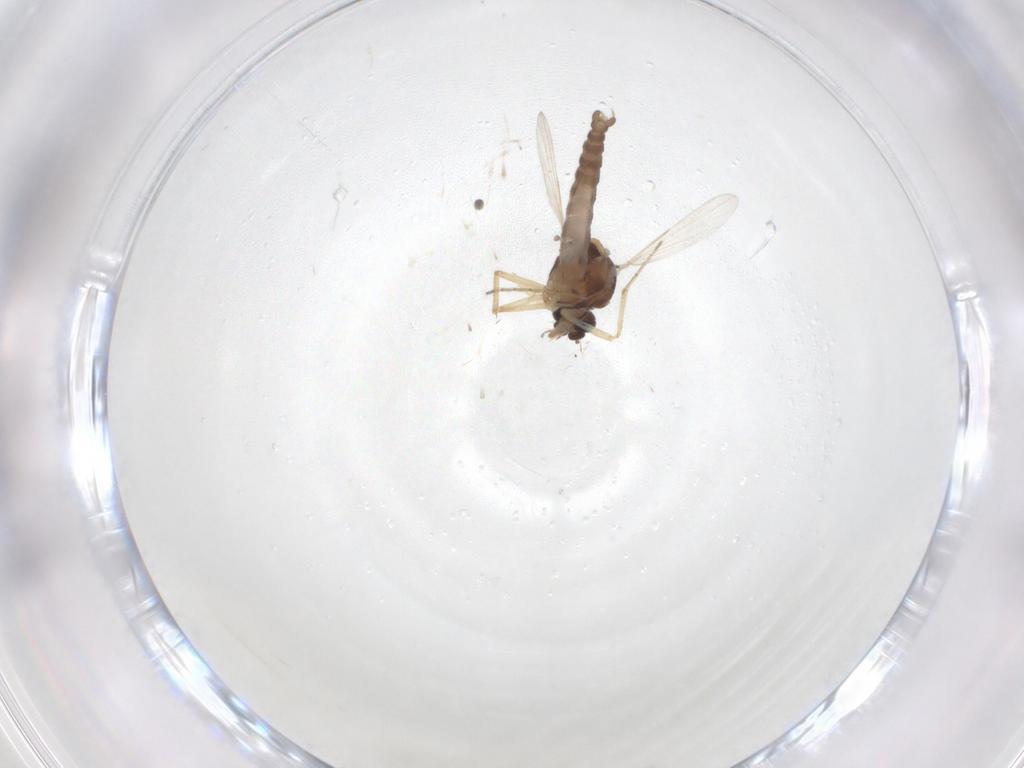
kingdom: Animalia
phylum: Arthropoda
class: Insecta
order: Diptera
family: Ceratopogonidae
